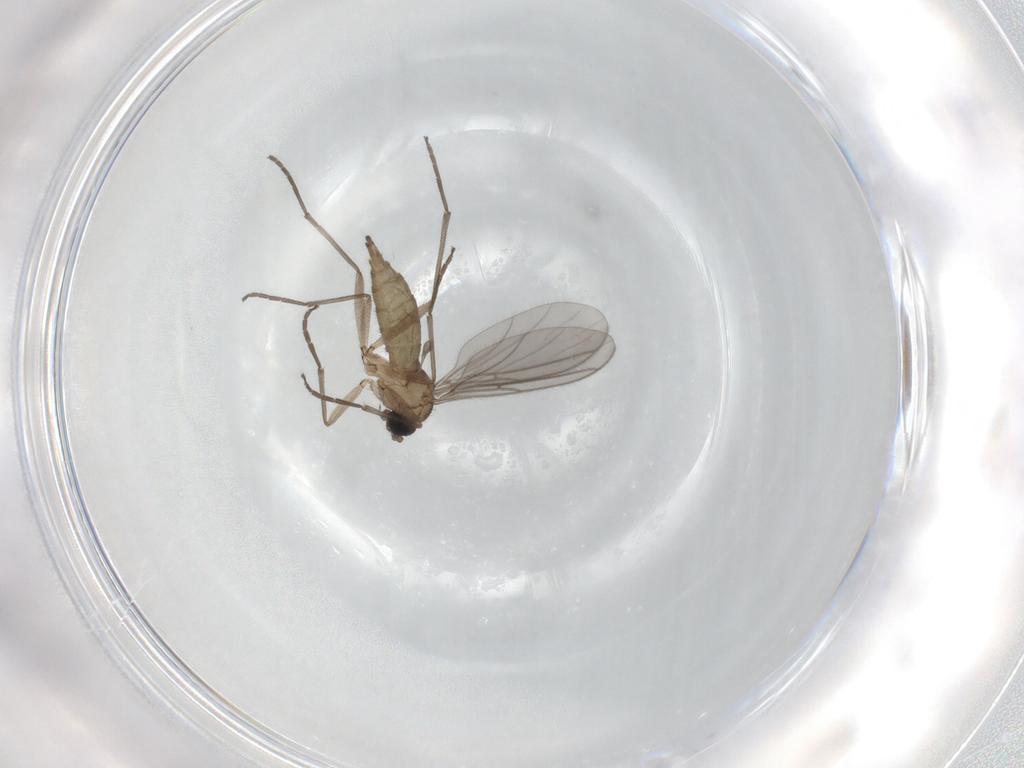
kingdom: Animalia
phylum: Arthropoda
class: Insecta
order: Diptera
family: Sciaridae
